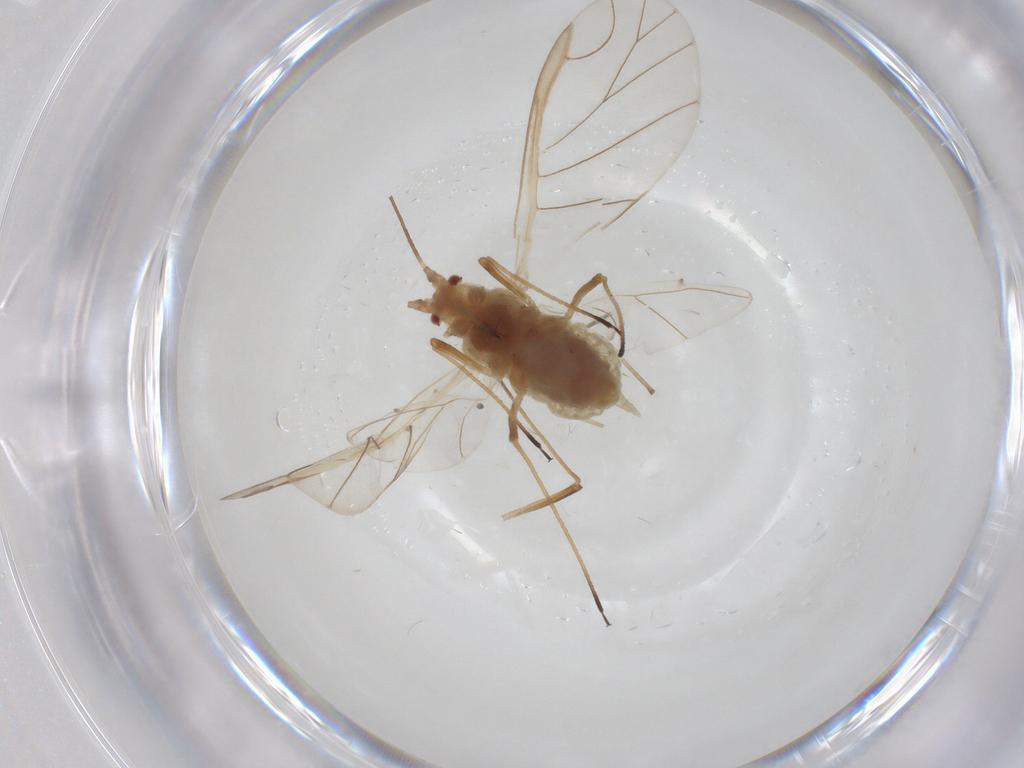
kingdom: Animalia
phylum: Arthropoda
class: Insecta
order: Hemiptera
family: Aphididae
